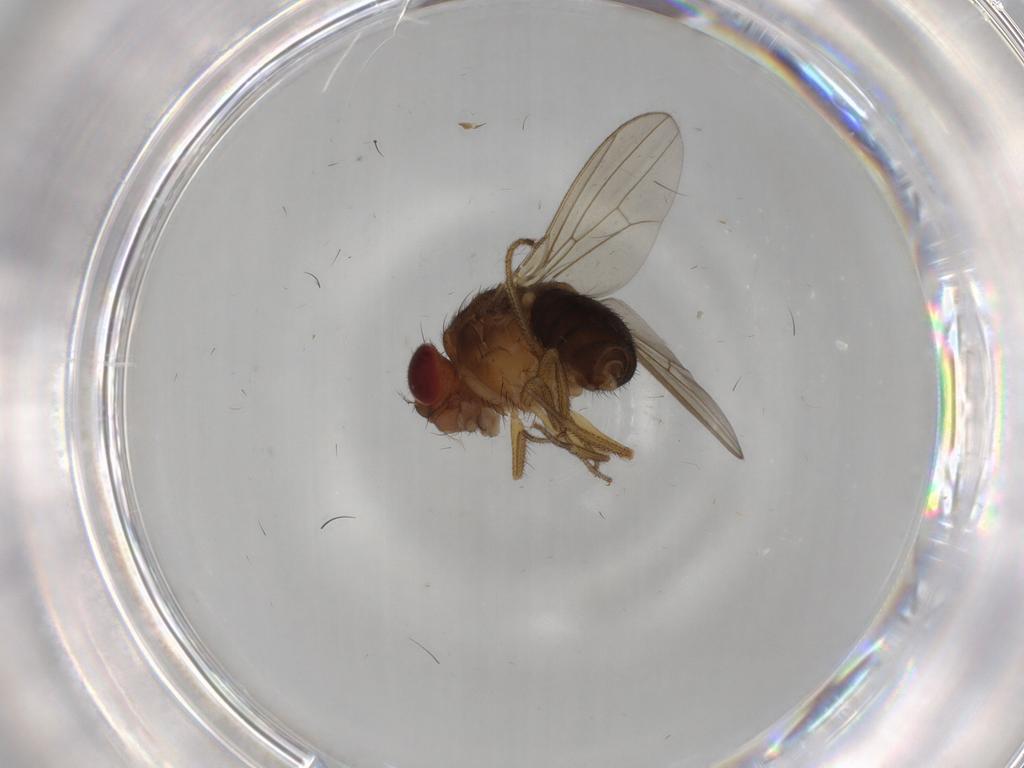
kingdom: Animalia
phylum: Arthropoda
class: Insecta
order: Diptera
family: Drosophilidae
